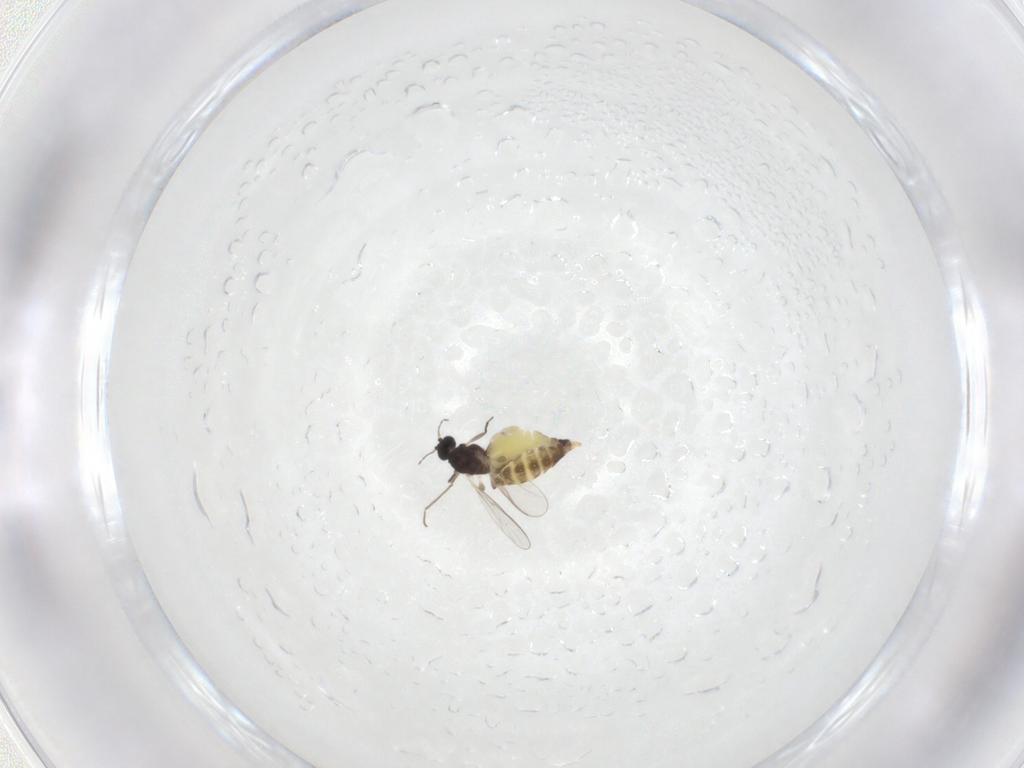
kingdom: Animalia
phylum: Arthropoda
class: Insecta
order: Diptera
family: Chironomidae
